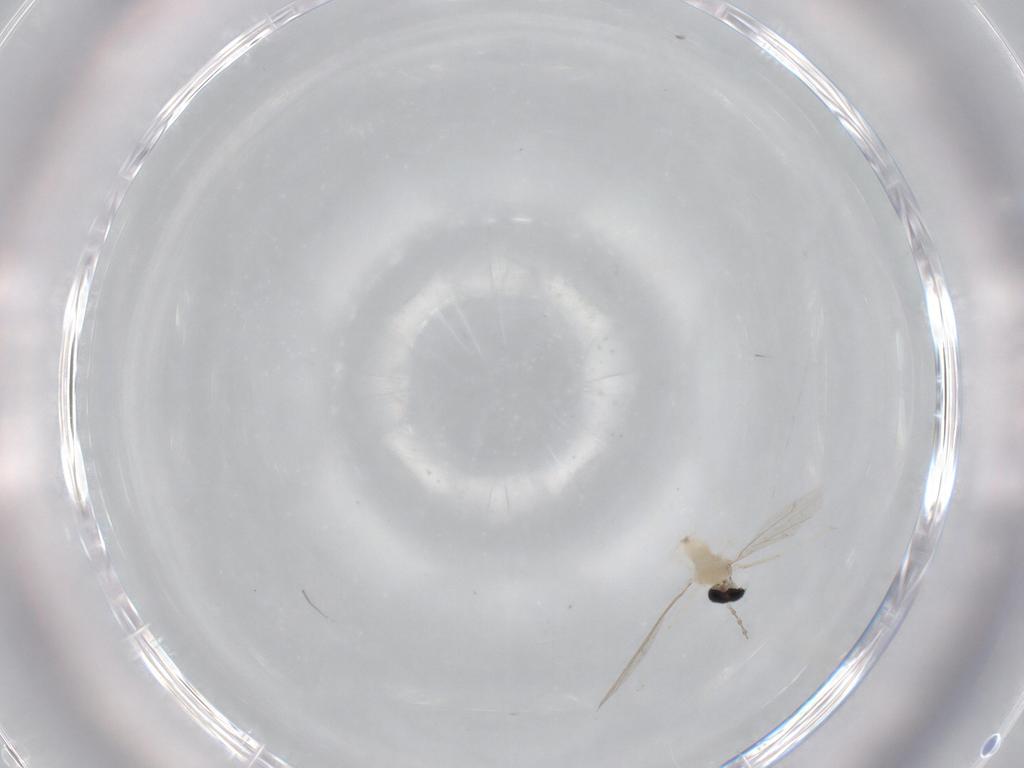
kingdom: Animalia
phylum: Arthropoda
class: Insecta
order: Diptera
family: Cecidomyiidae
